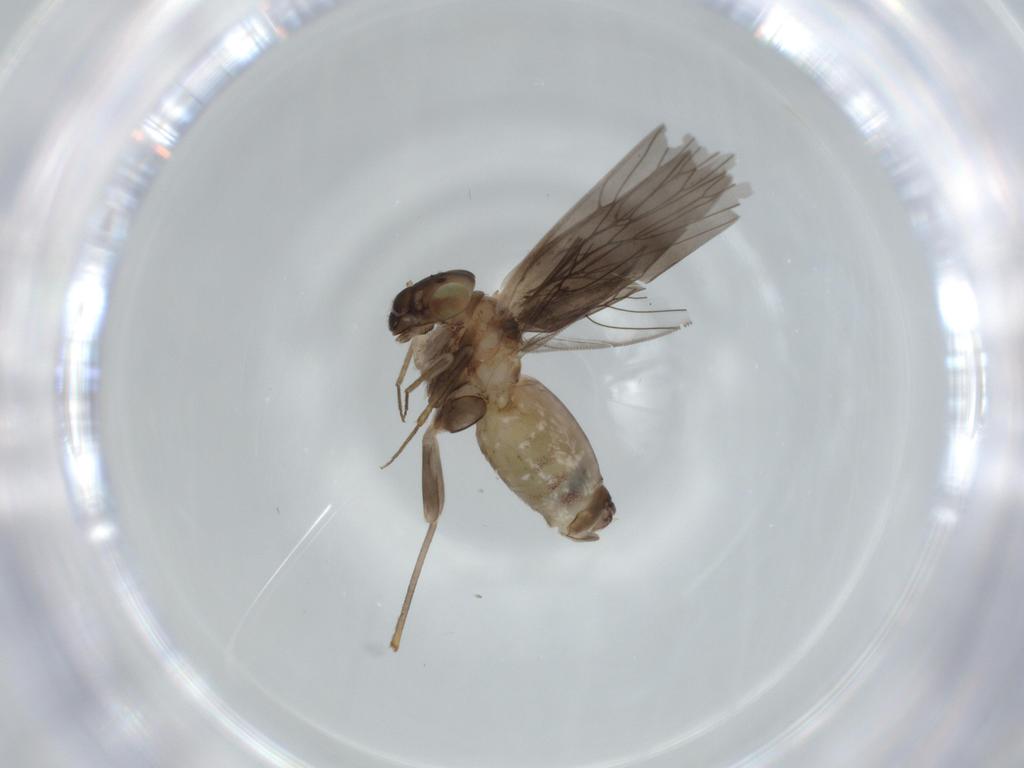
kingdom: Animalia
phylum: Arthropoda
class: Insecta
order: Psocodea
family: Lepidopsocidae
